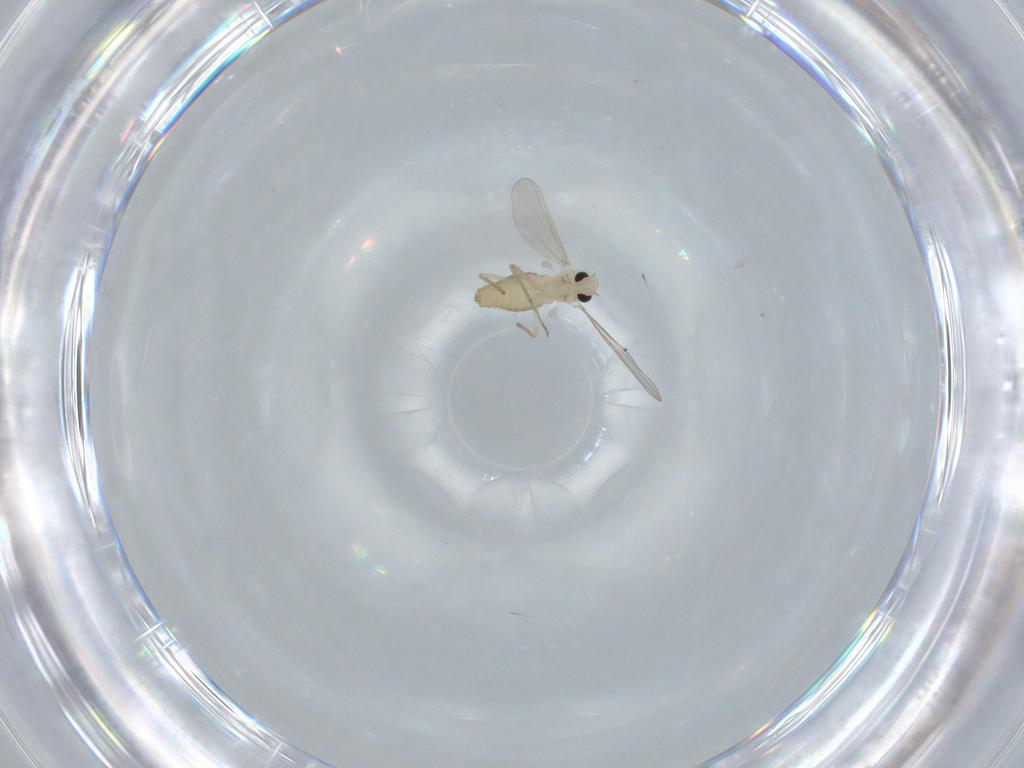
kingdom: Animalia
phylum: Arthropoda
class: Insecta
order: Diptera
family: Chironomidae
